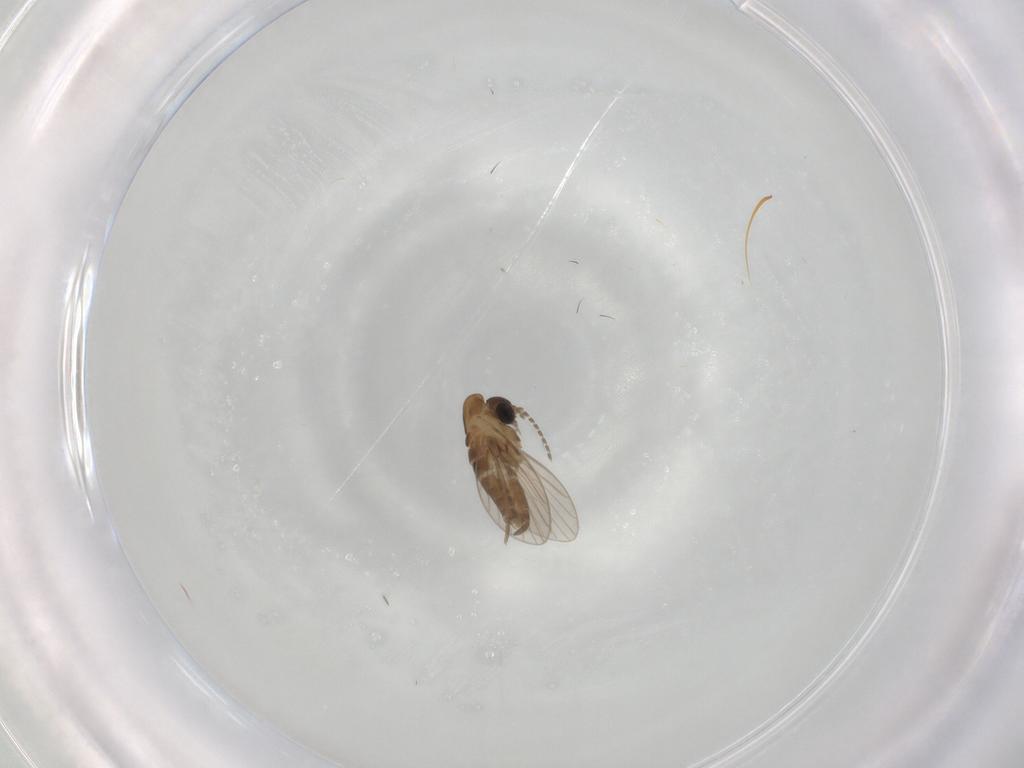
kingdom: Animalia
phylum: Arthropoda
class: Insecta
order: Diptera
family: Psychodidae
